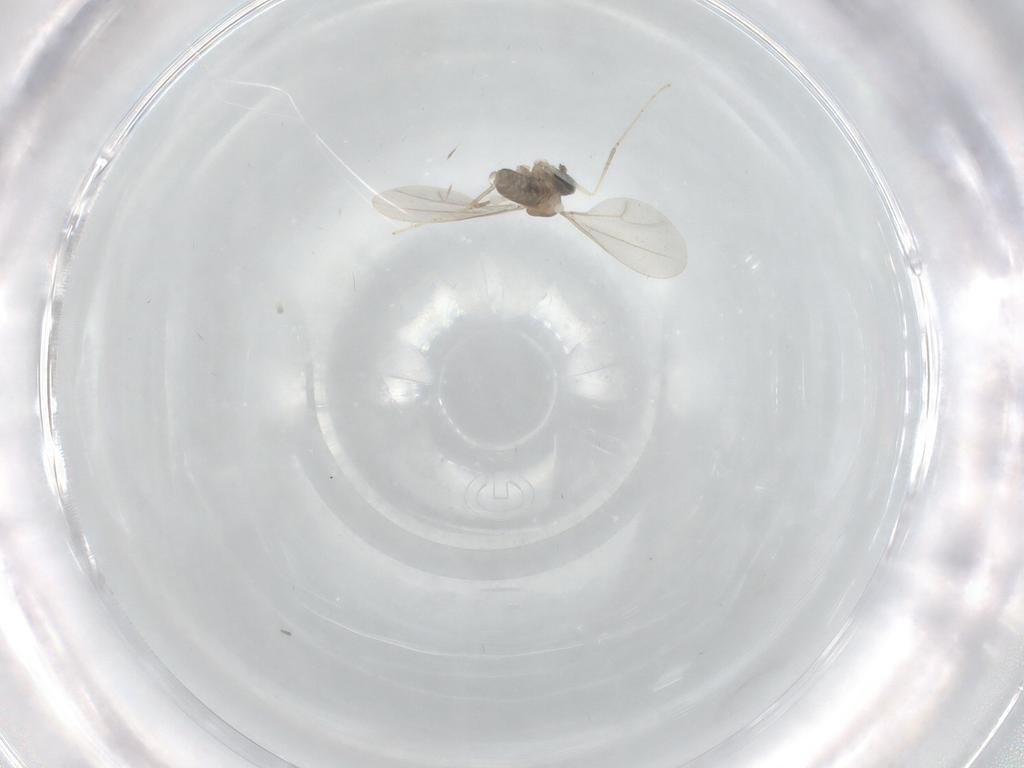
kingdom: Animalia
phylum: Arthropoda
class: Insecta
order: Diptera
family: Cecidomyiidae
